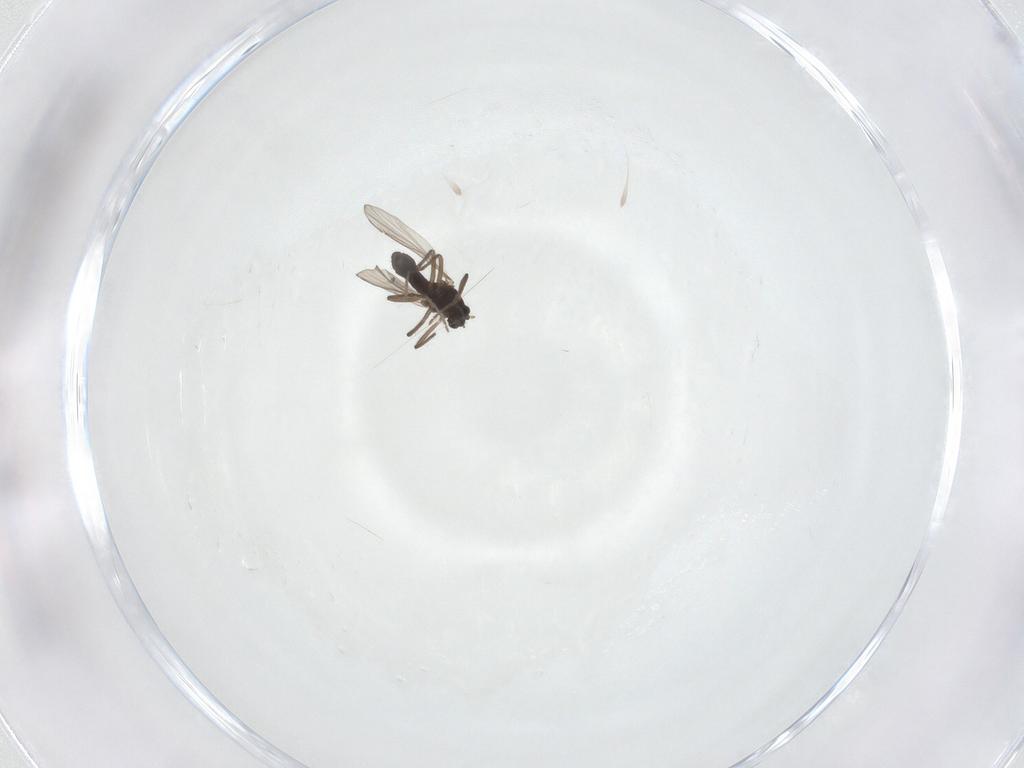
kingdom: Animalia
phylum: Arthropoda
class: Insecta
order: Diptera
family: Chironomidae
